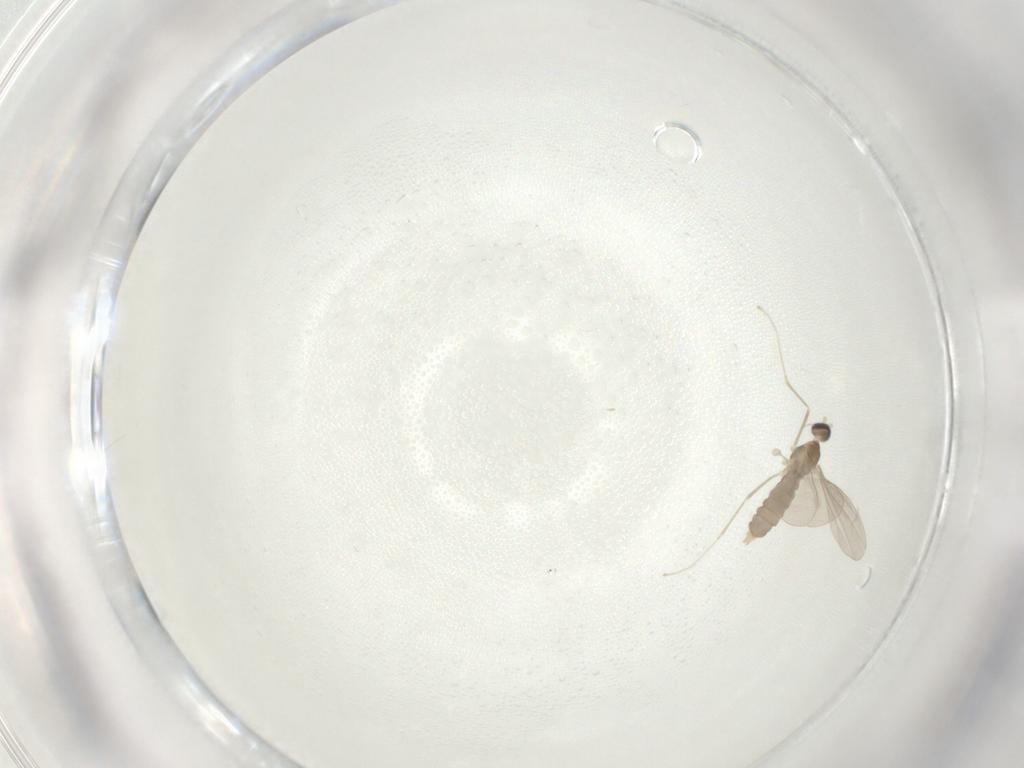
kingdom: Animalia
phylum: Arthropoda
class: Insecta
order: Diptera
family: Cecidomyiidae
